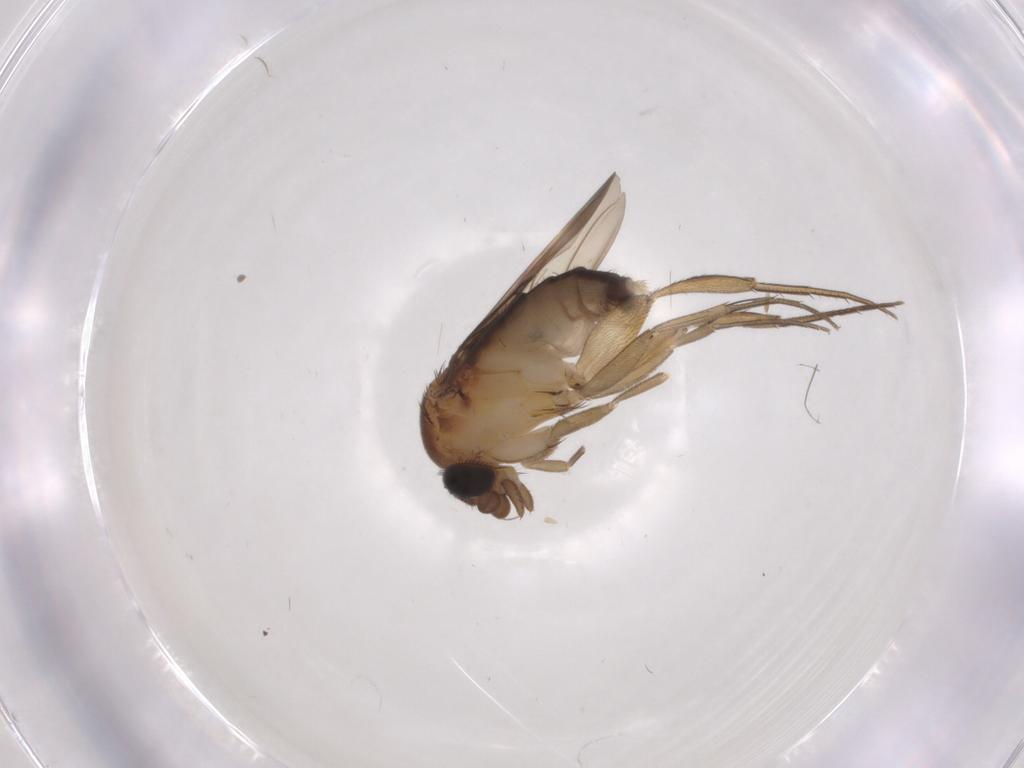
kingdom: Animalia
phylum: Arthropoda
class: Insecta
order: Diptera
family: Phoridae
